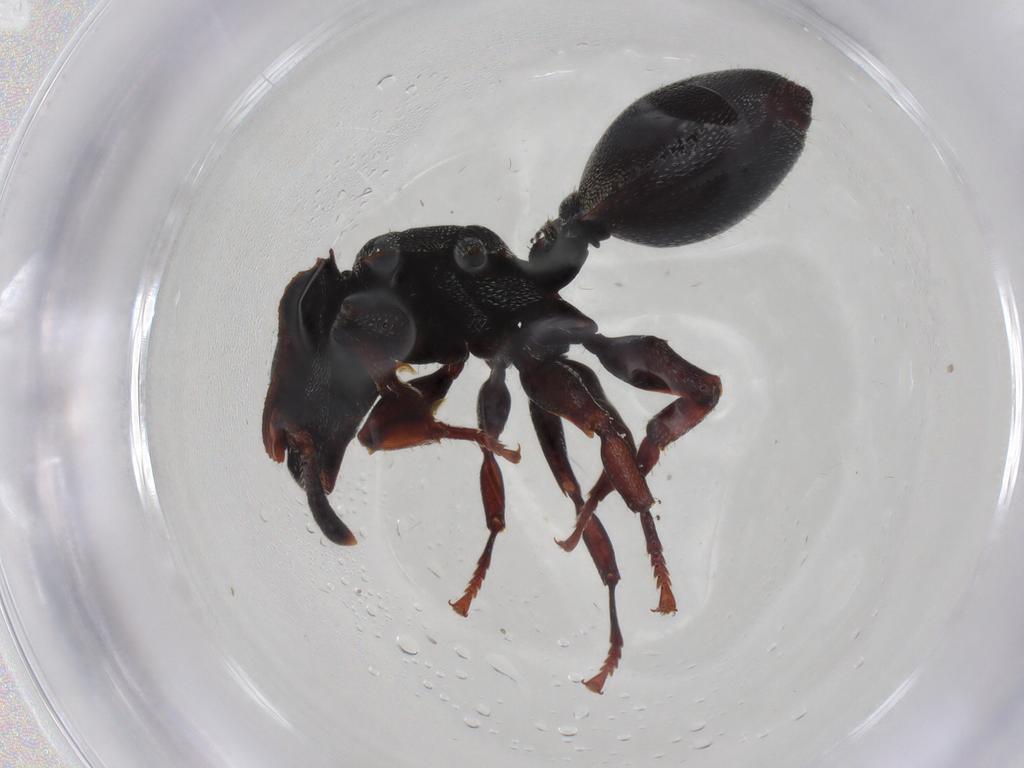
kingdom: Animalia
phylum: Arthropoda
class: Insecta
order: Hymenoptera
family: Formicidae
